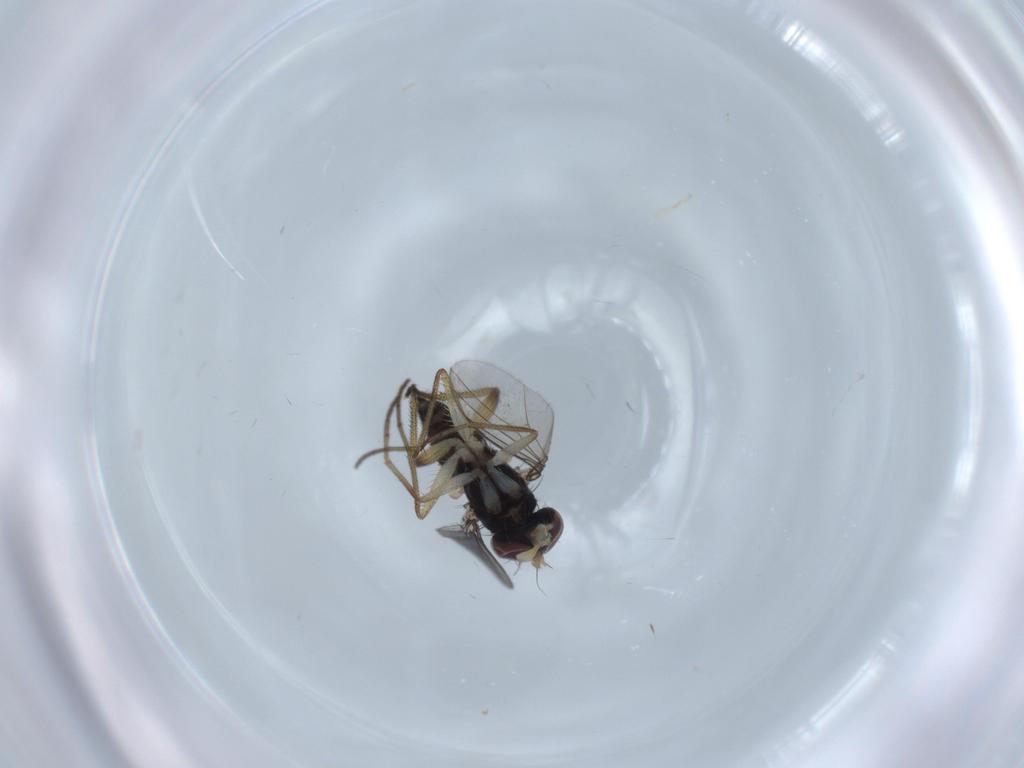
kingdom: Animalia
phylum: Arthropoda
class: Insecta
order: Diptera
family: Dolichopodidae
